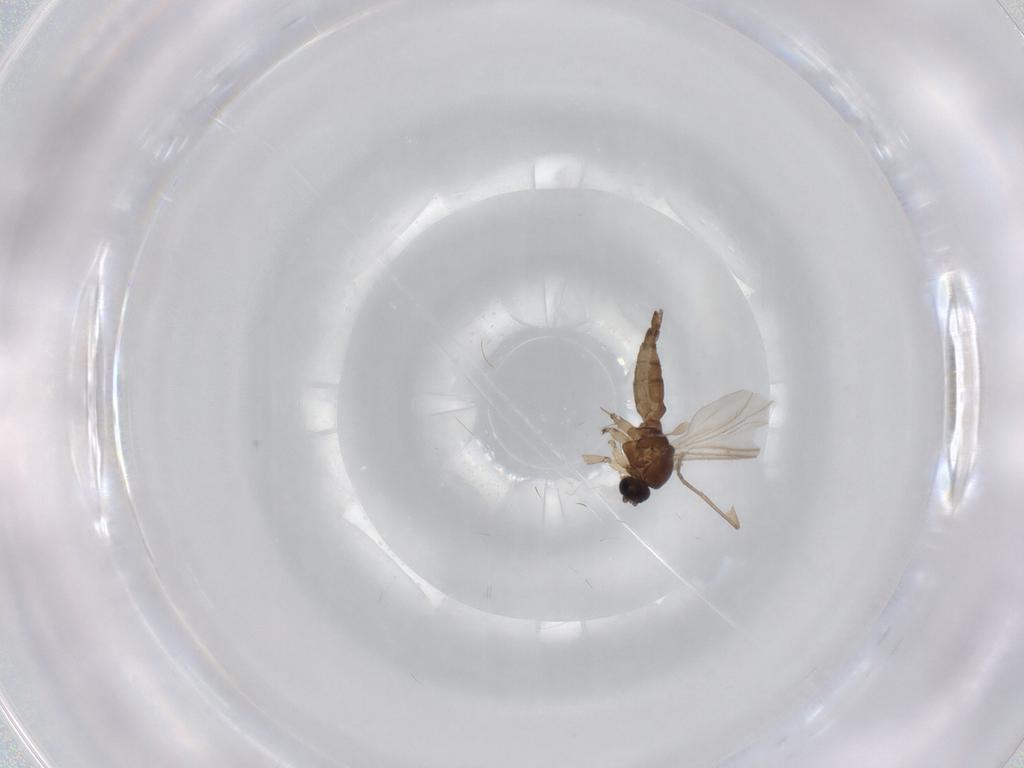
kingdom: Animalia
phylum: Arthropoda
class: Insecta
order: Diptera
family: Sciaridae
